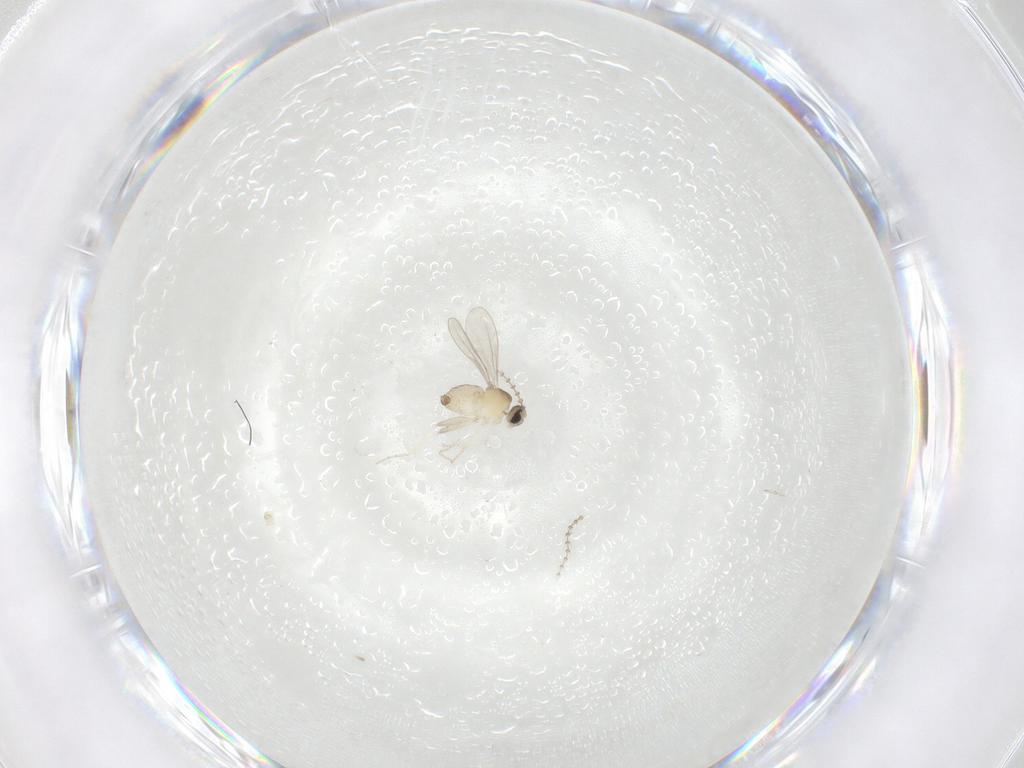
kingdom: Animalia
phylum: Arthropoda
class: Insecta
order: Diptera
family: Cecidomyiidae
